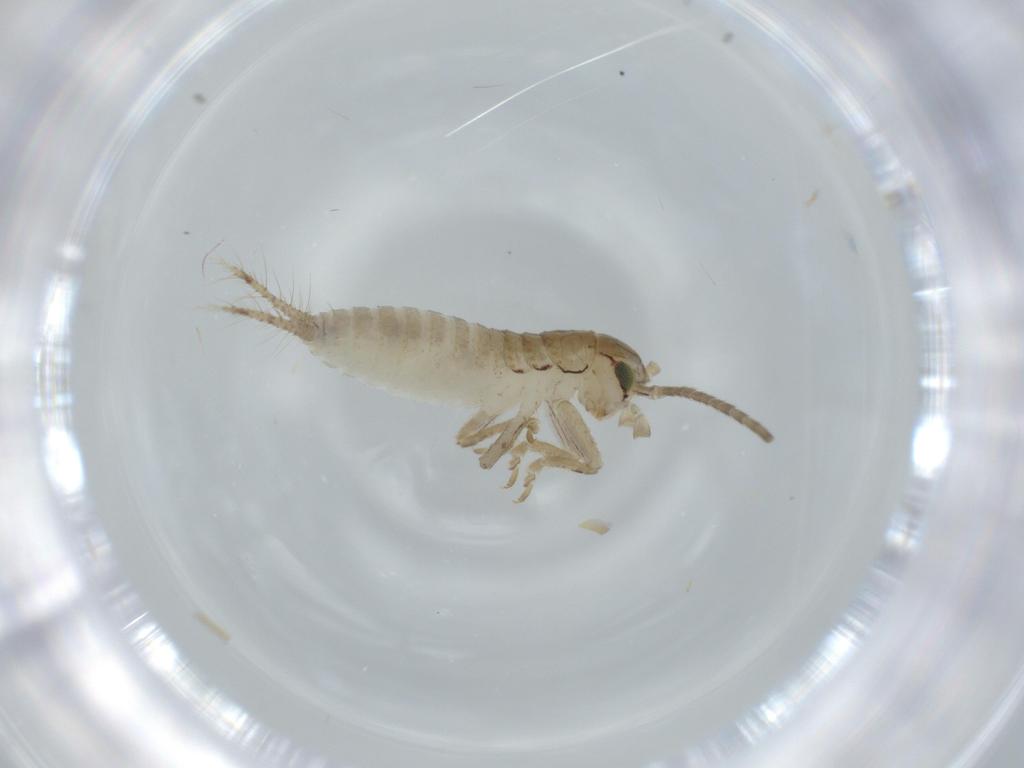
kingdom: Animalia
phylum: Arthropoda
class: Insecta
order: Orthoptera
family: Gryllidae
